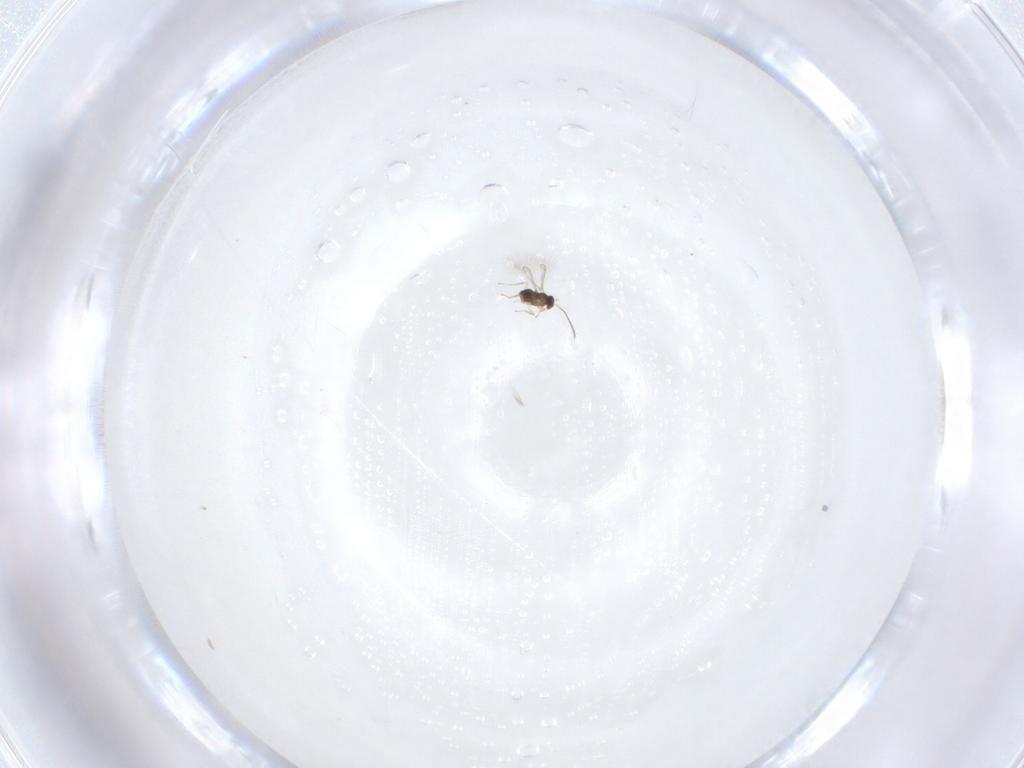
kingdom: Animalia
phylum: Arthropoda
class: Insecta
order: Hymenoptera
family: Mymaridae
